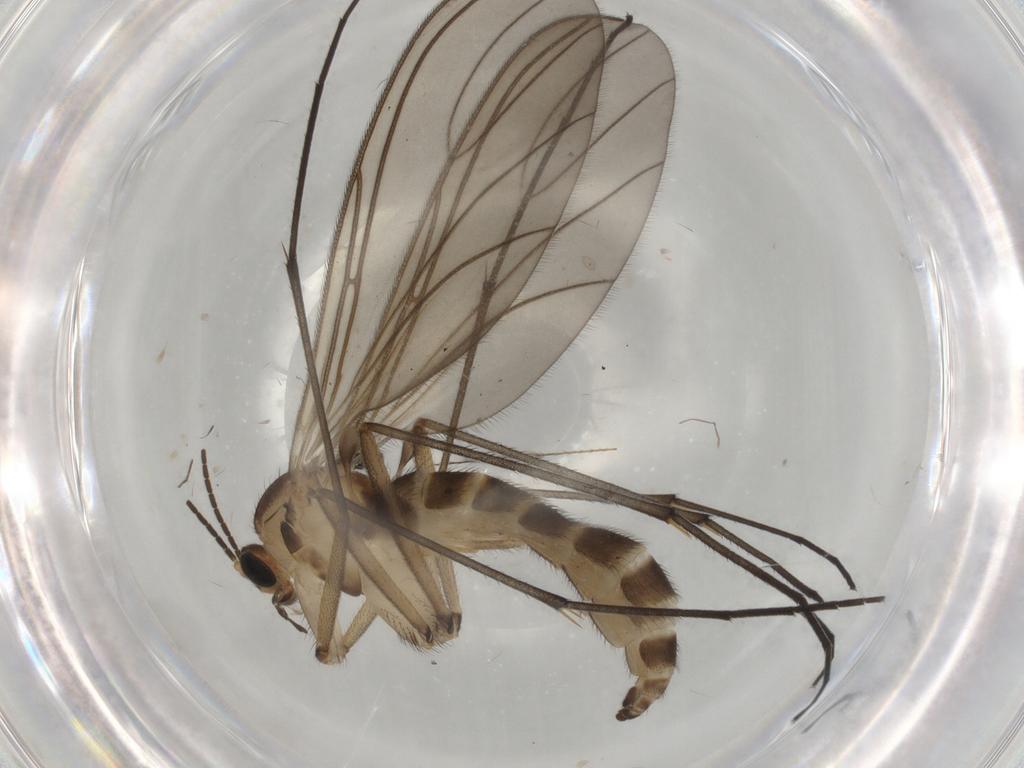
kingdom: Animalia
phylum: Arthropoda
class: Insecta
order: Diptera
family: Sciaridae
